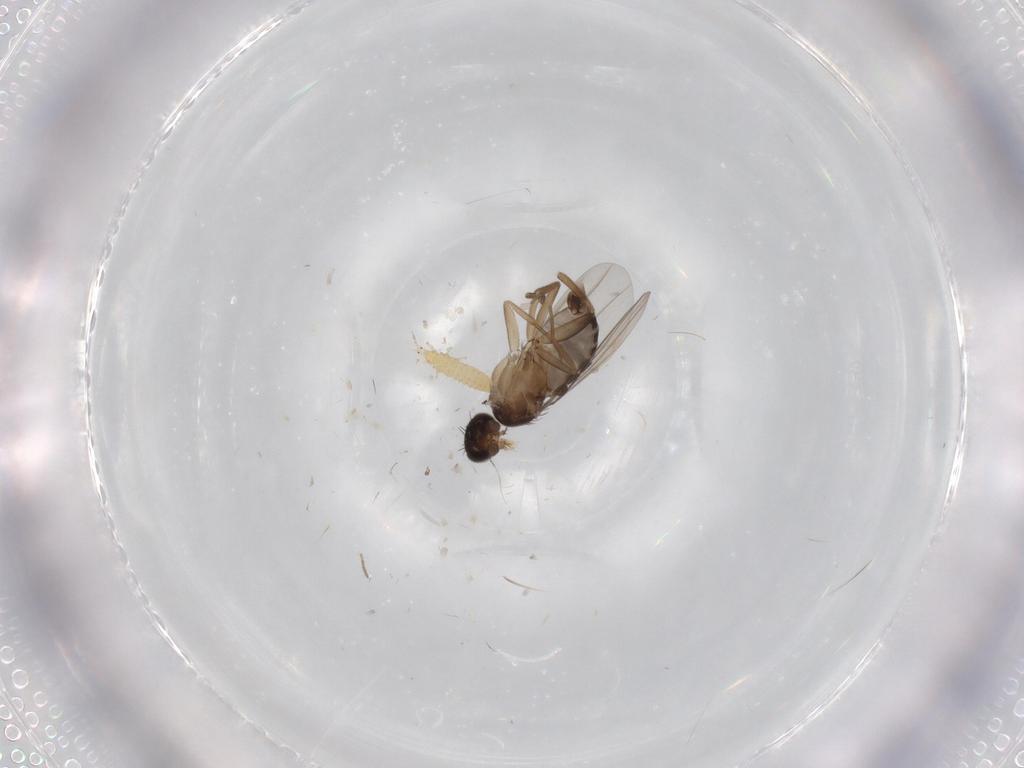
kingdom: Animalia
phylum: Arthropoda
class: Insecta
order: Diptera
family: Phoridae
